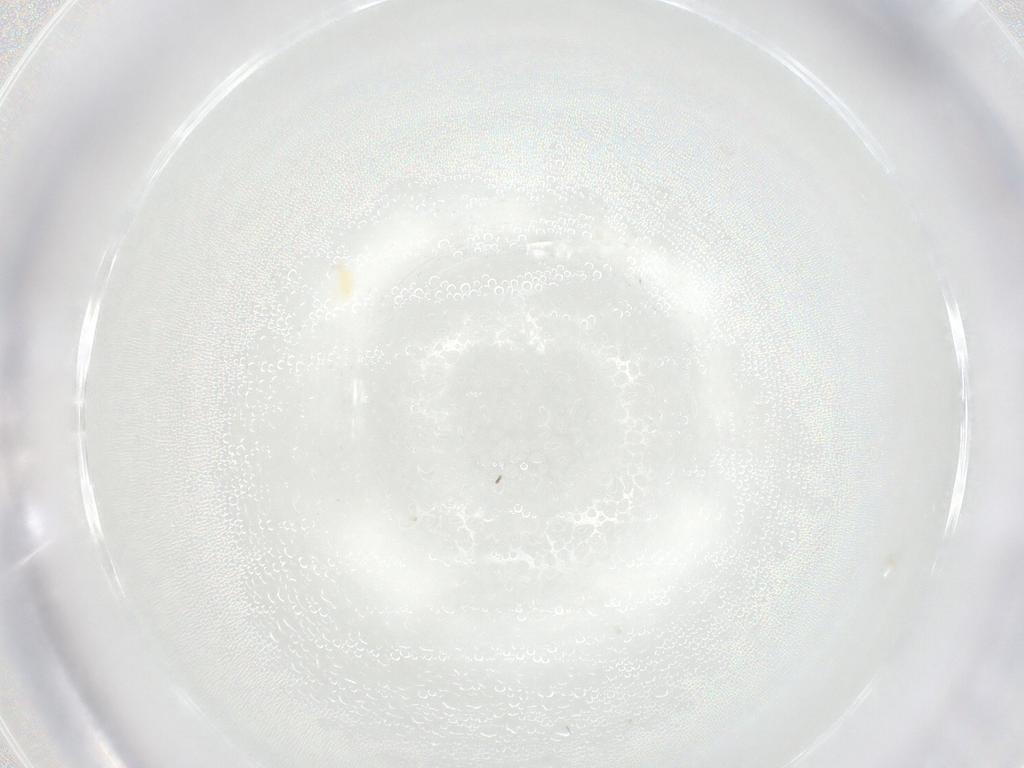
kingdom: Animalia
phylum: Arthropoda
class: Arachnida
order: Trombidiformes
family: Tetranychidae
